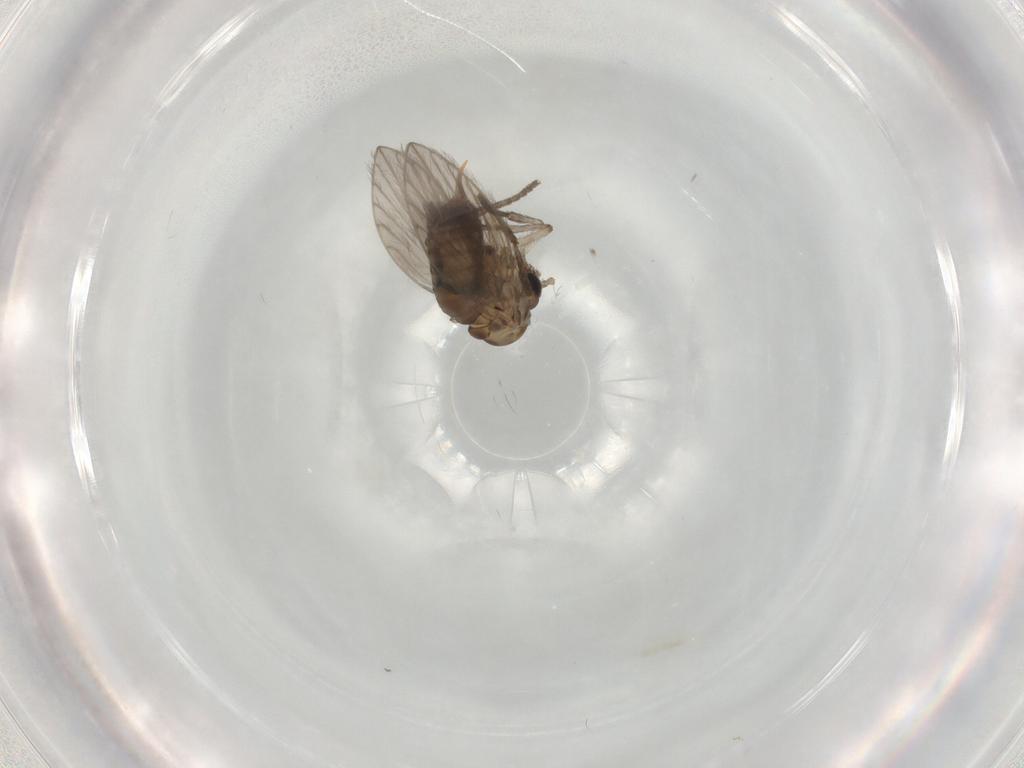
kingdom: Animalia
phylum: Arthropoda
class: Insecta
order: Diptera
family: Psychodidae
